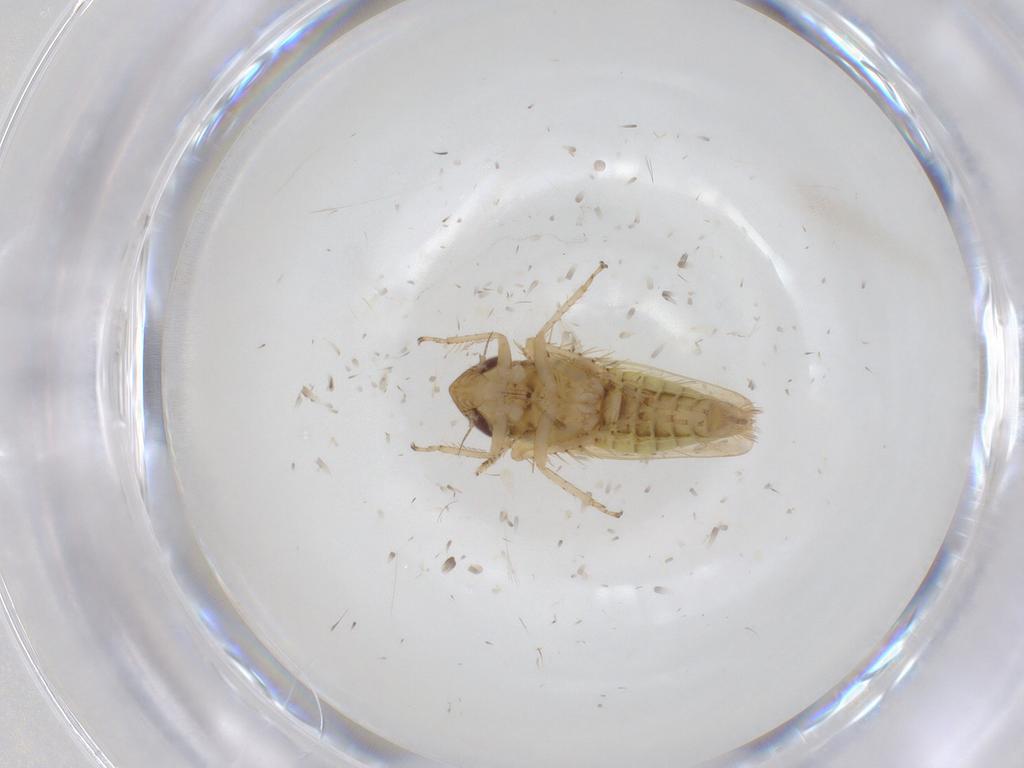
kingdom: Animalia
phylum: Arthropoda
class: Insecta
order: Hemiptera
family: Cicadellidae
